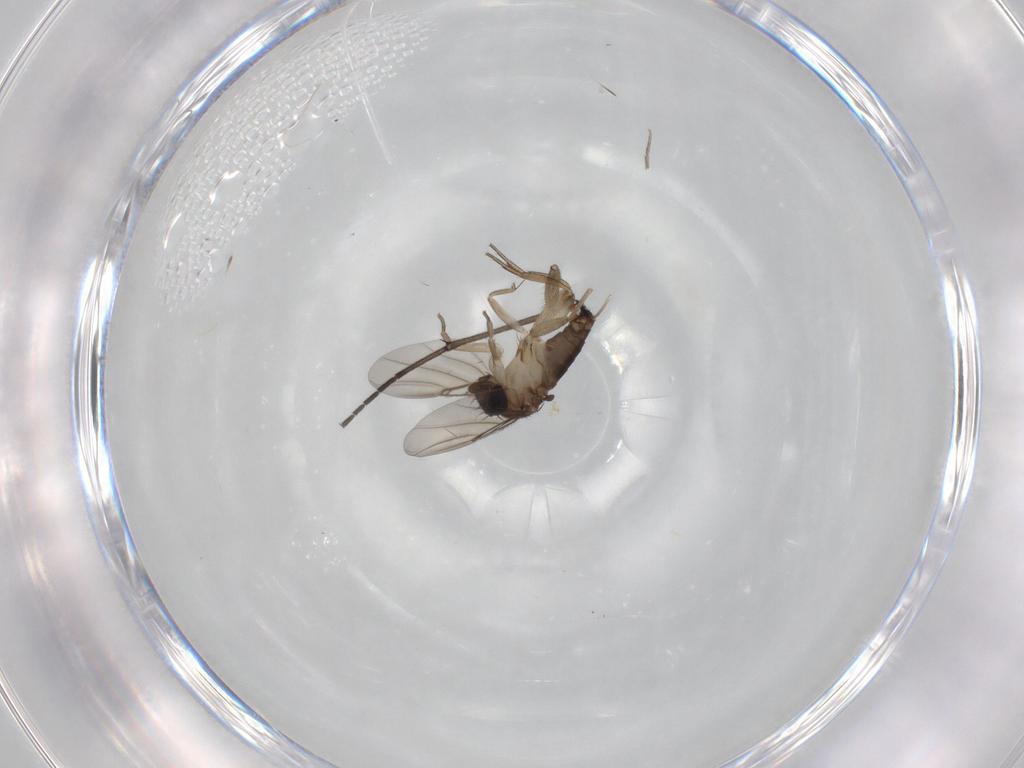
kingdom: Animalia
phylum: Arthropoda
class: Insecta
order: Diptera
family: Sciaridae
